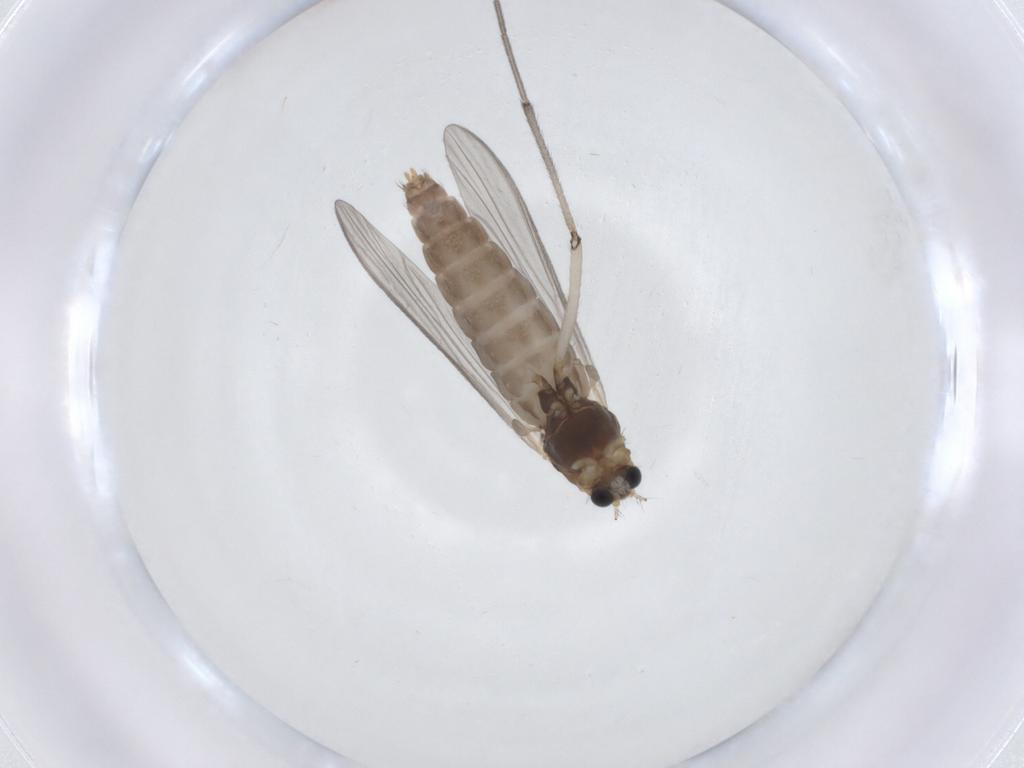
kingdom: Animalia
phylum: Arthropoda
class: Insecta
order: Diptera
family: Chironomidae
